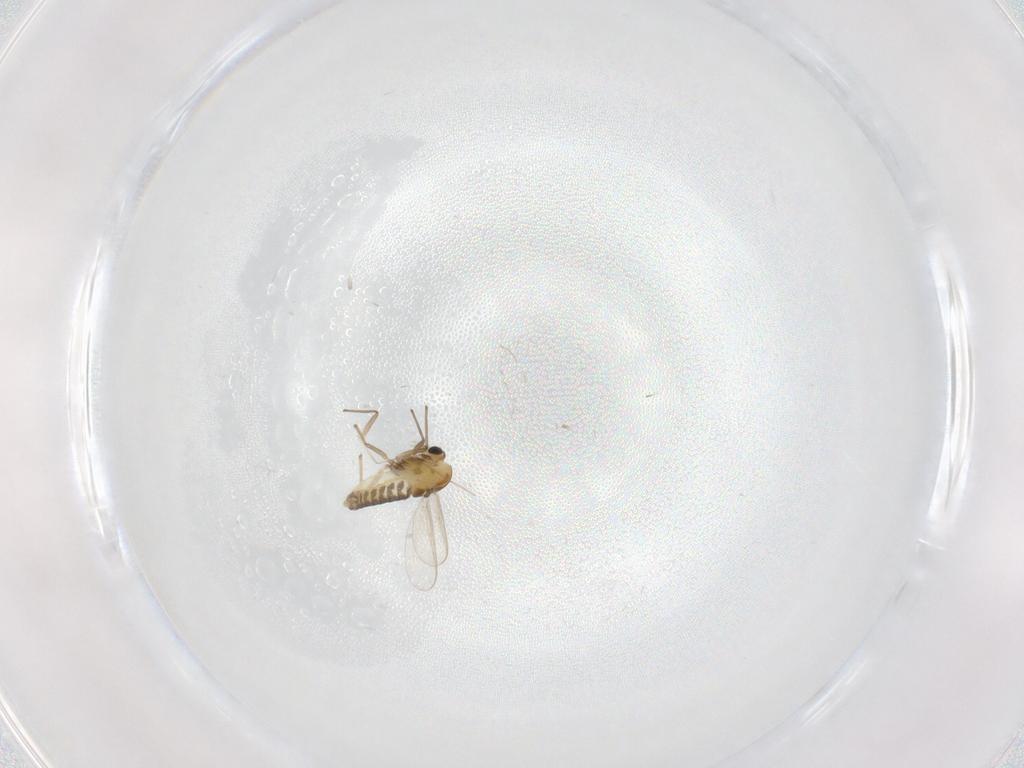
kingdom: Animalia
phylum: Arthropoda
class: Insecta
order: Diptera
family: Chironomidae
